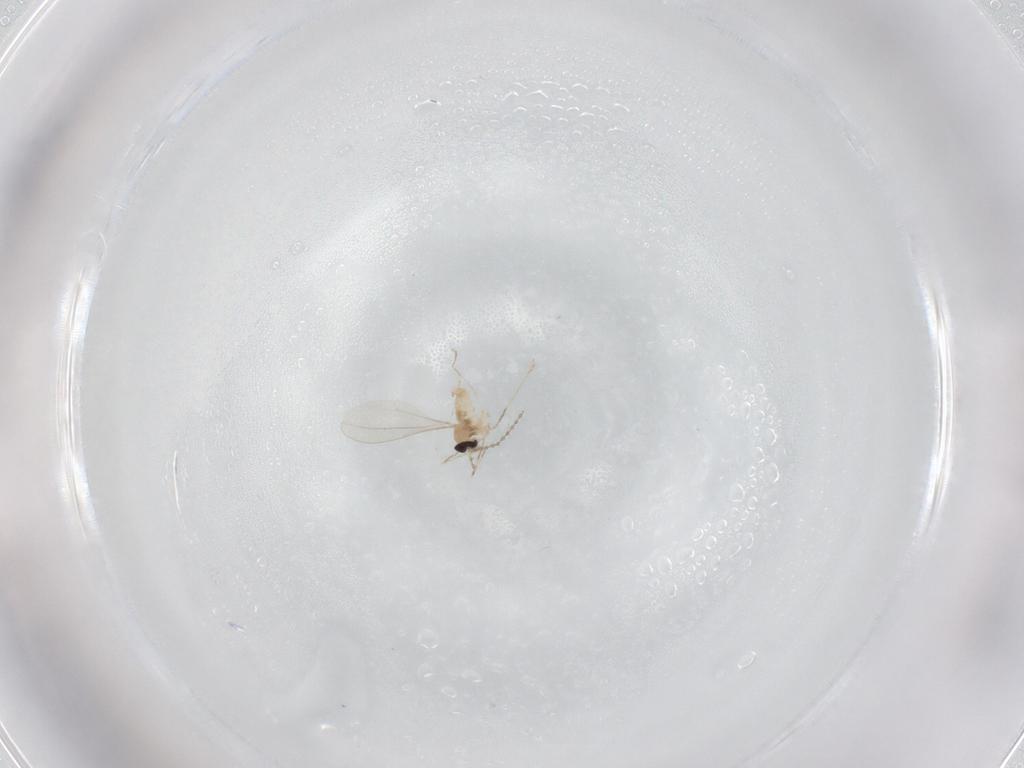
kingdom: Animalia
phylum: Arthropoda
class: Insecta
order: Diptera
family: Cecidomyiidae
